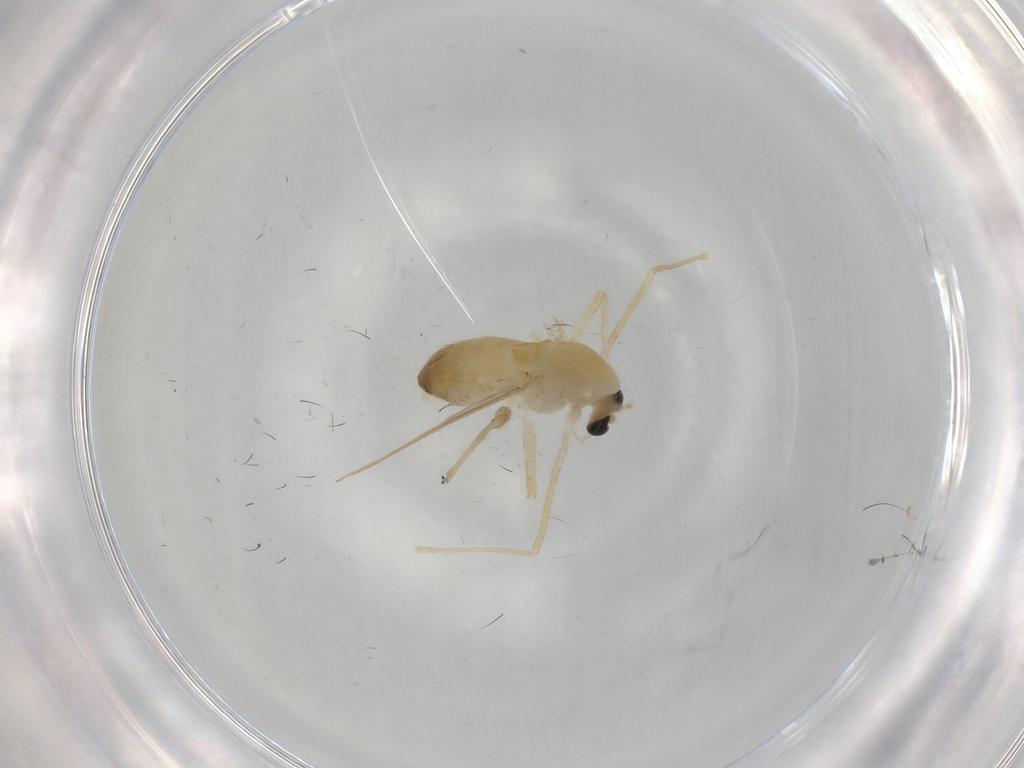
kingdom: Animalia
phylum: Arthropoda
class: Insecta
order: Diptera
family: Chironomidae
